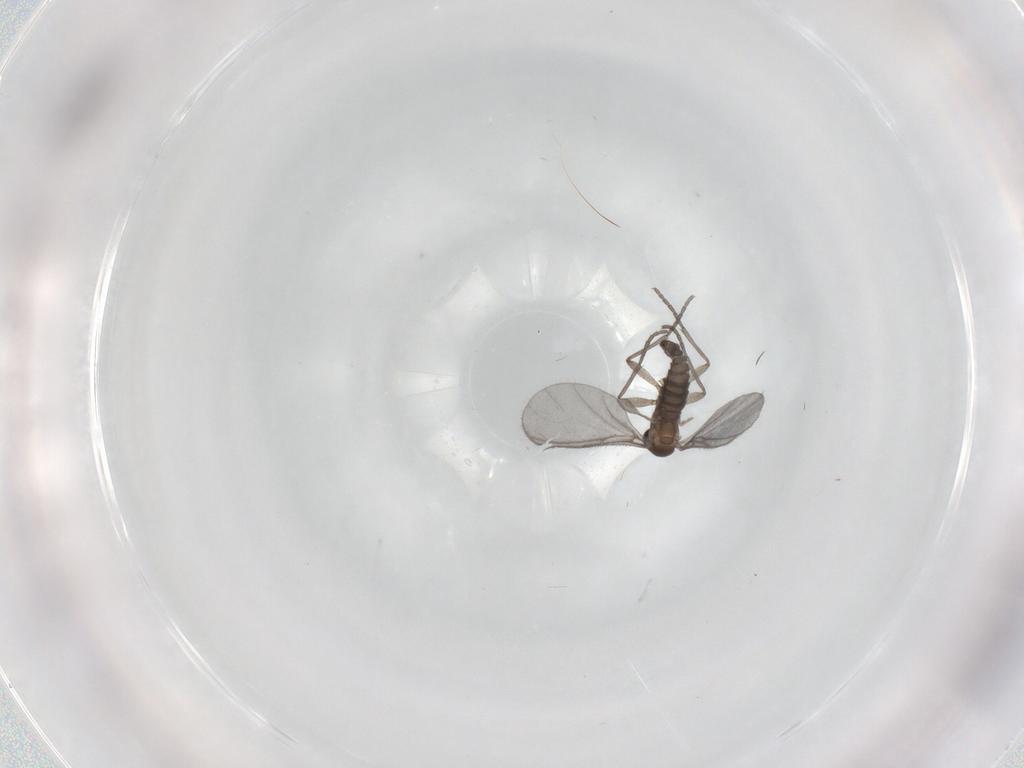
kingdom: Animalia
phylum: Arthropoda
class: Insecta
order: Diptera
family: Sciaridae
